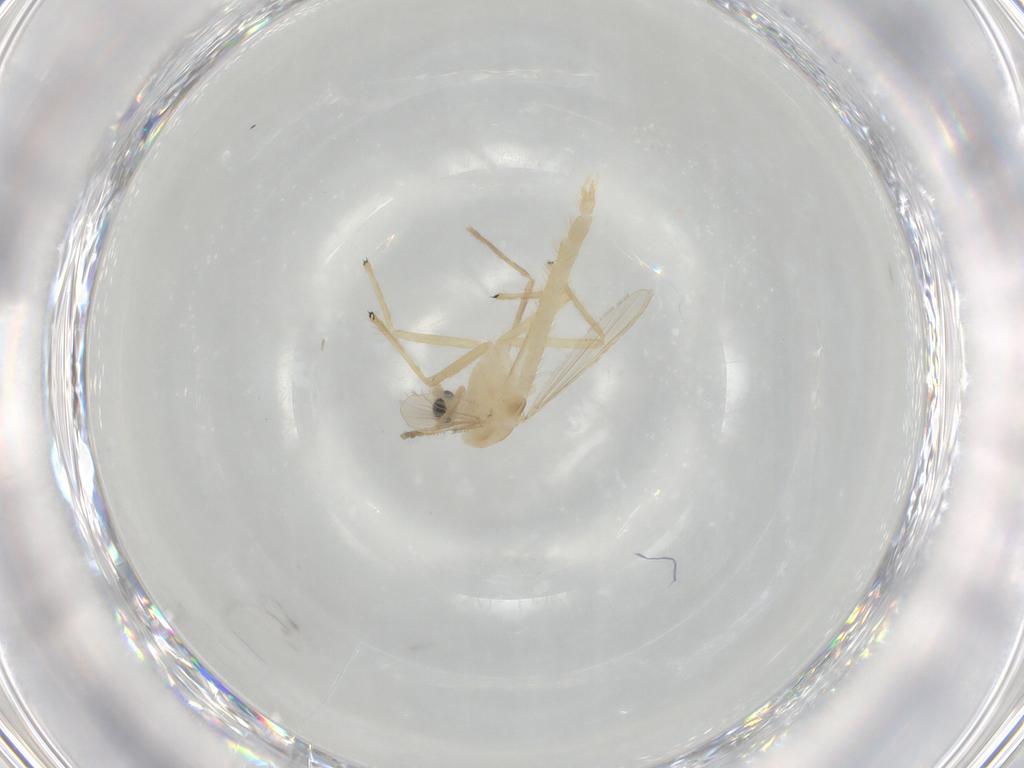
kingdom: Animalia
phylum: Arthropoda
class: Insecta
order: Diptera
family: Chironomidae
